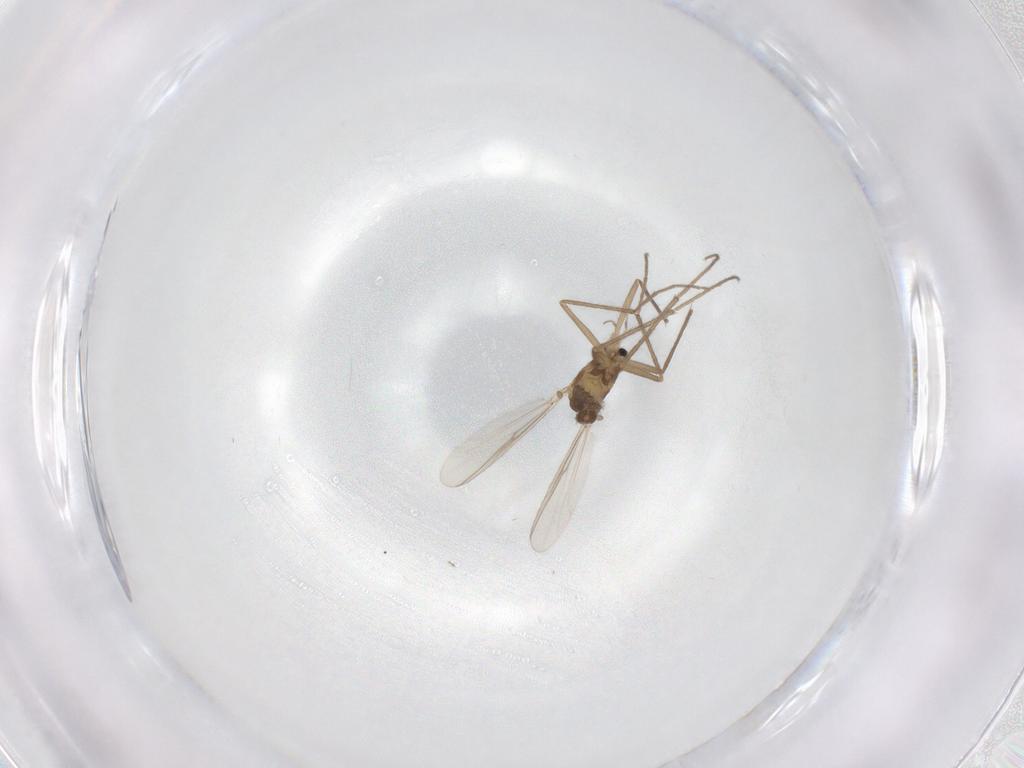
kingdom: Animalia
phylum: Arthropoda
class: Insecta
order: Diptera
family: Chironomidae
